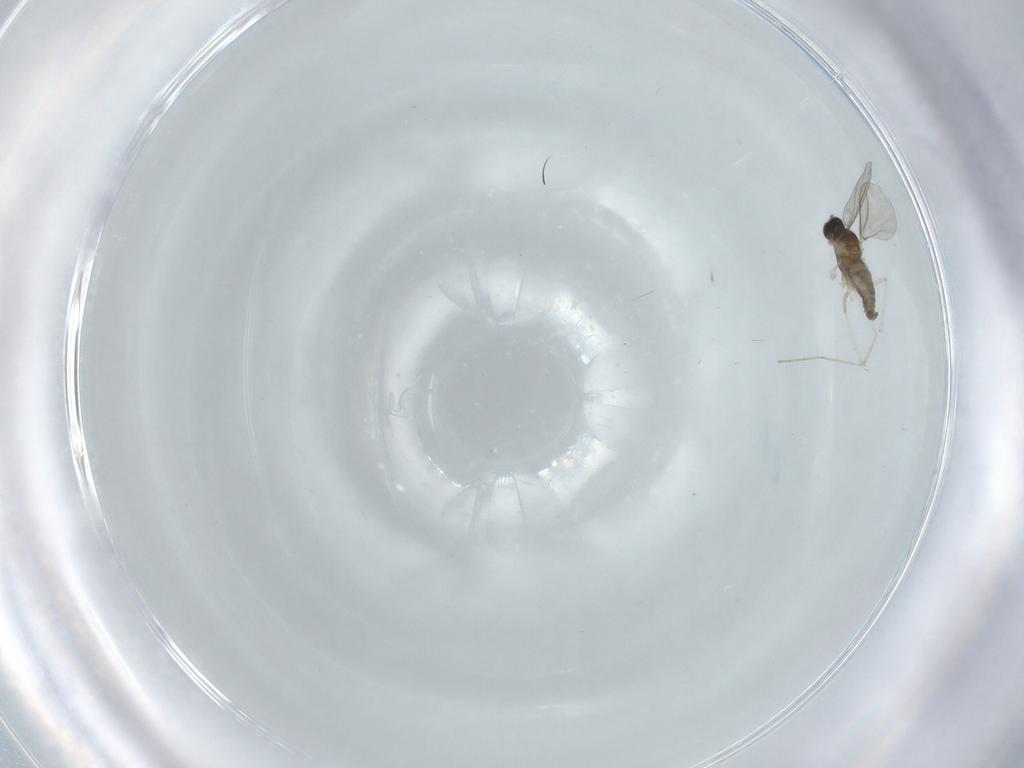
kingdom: Animalia
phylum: Arthropoda
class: Insecta
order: Diptera
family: Cecidomyiidae
